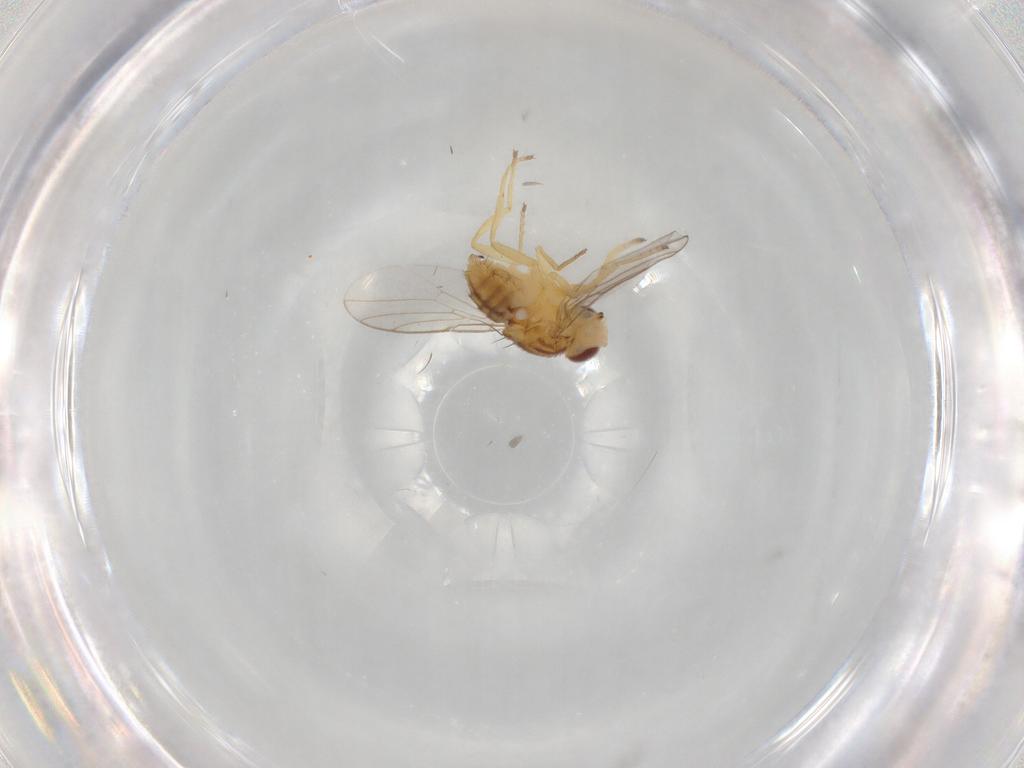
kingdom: Animalia
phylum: Arthropoda
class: Insecta
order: Diptera
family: Chloropidae
